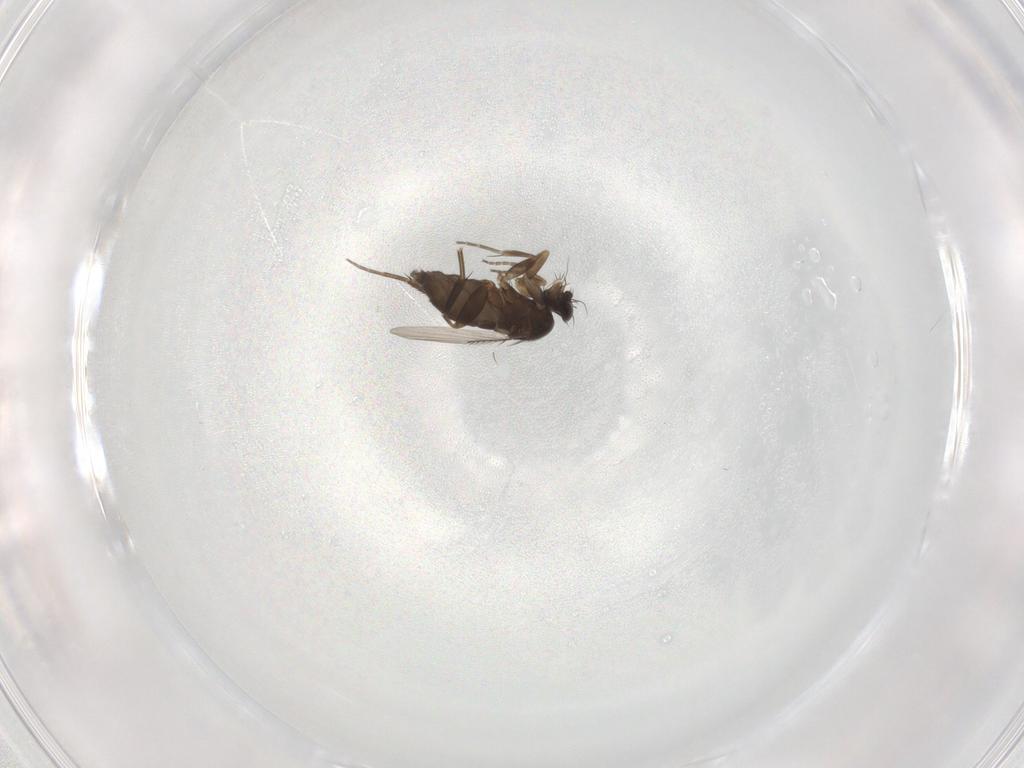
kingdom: Animalia
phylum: Arthropoda
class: Insecta
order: Diptera
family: Phoridae
